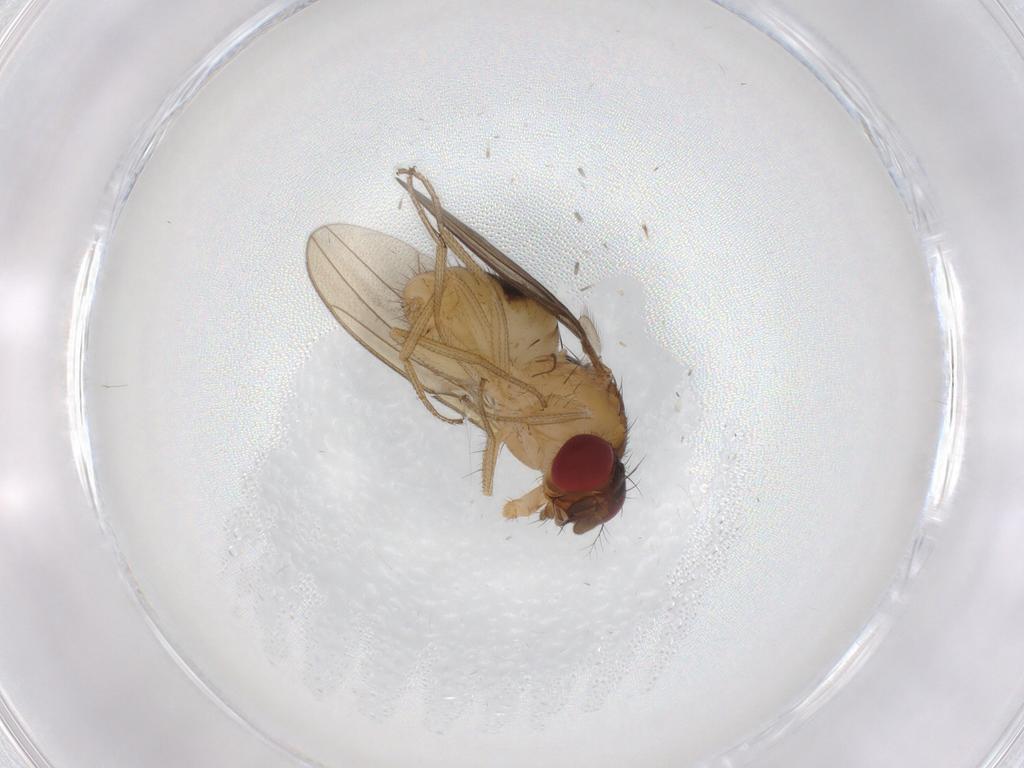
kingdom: Animalia
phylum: Arthropoda
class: Insecta
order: Diptera
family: Drosophilidae
